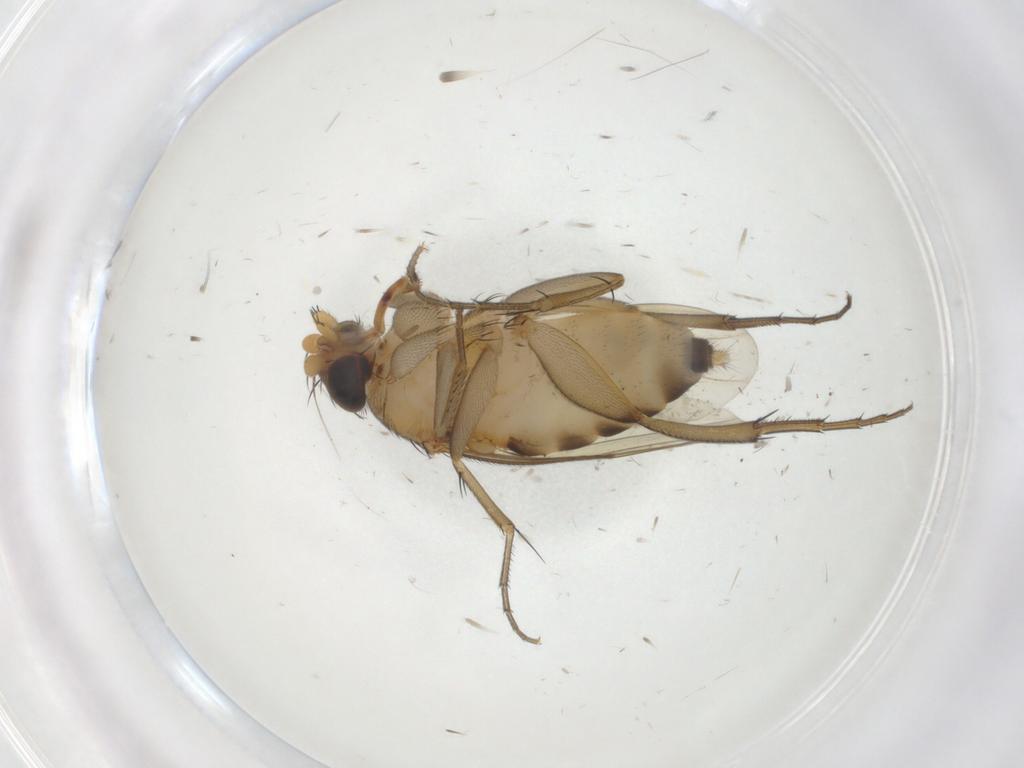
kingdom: Animalia
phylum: Arthropoda
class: Insecta
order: Diptera
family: Phoridae
